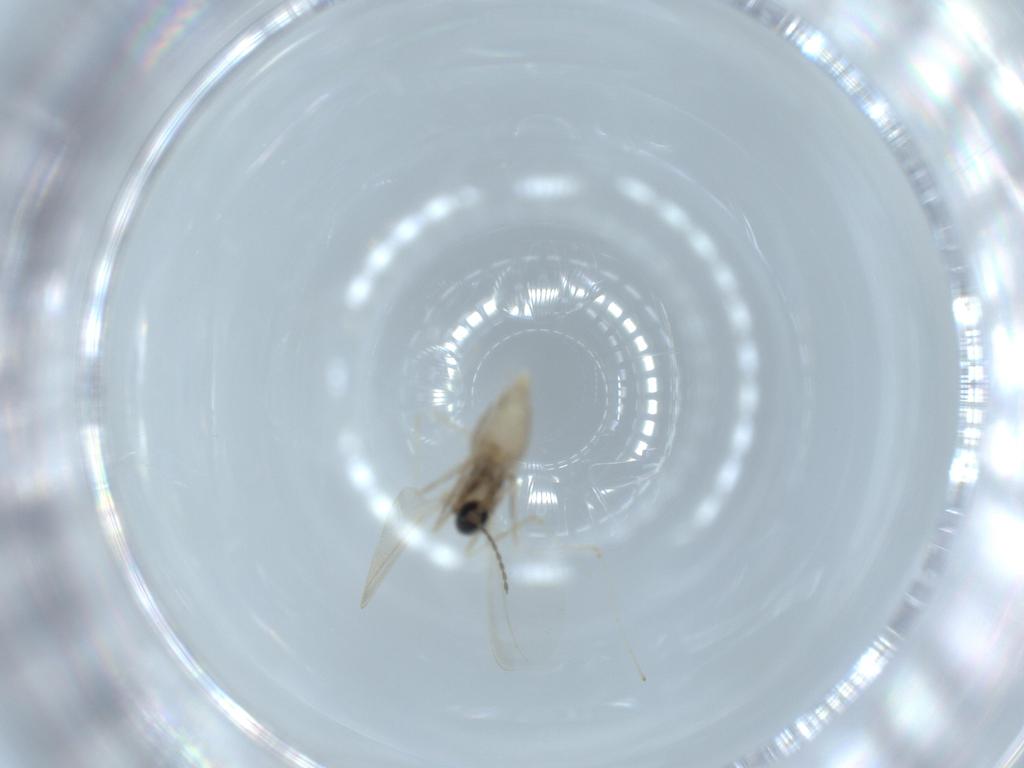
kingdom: Animalia
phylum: Arthropoda
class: Insecta
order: Diptera
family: Cecidomyiidae
